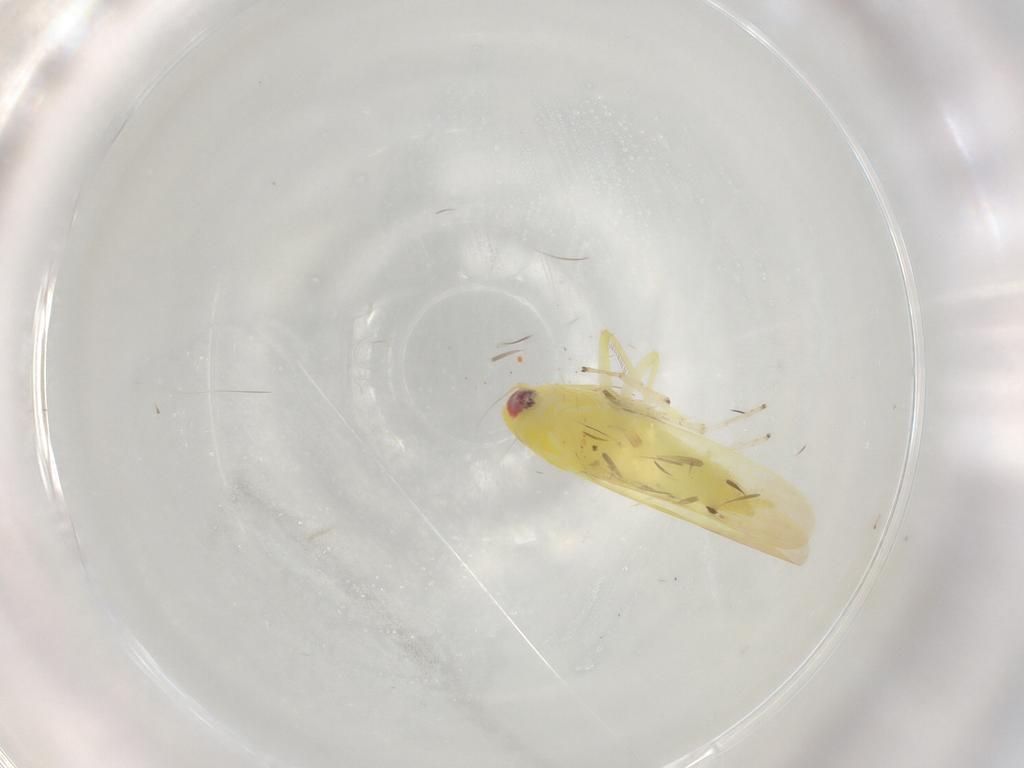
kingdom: Animalia
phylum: Arthropoda
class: Insecta
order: Hemiptera
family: Cicadellidae
